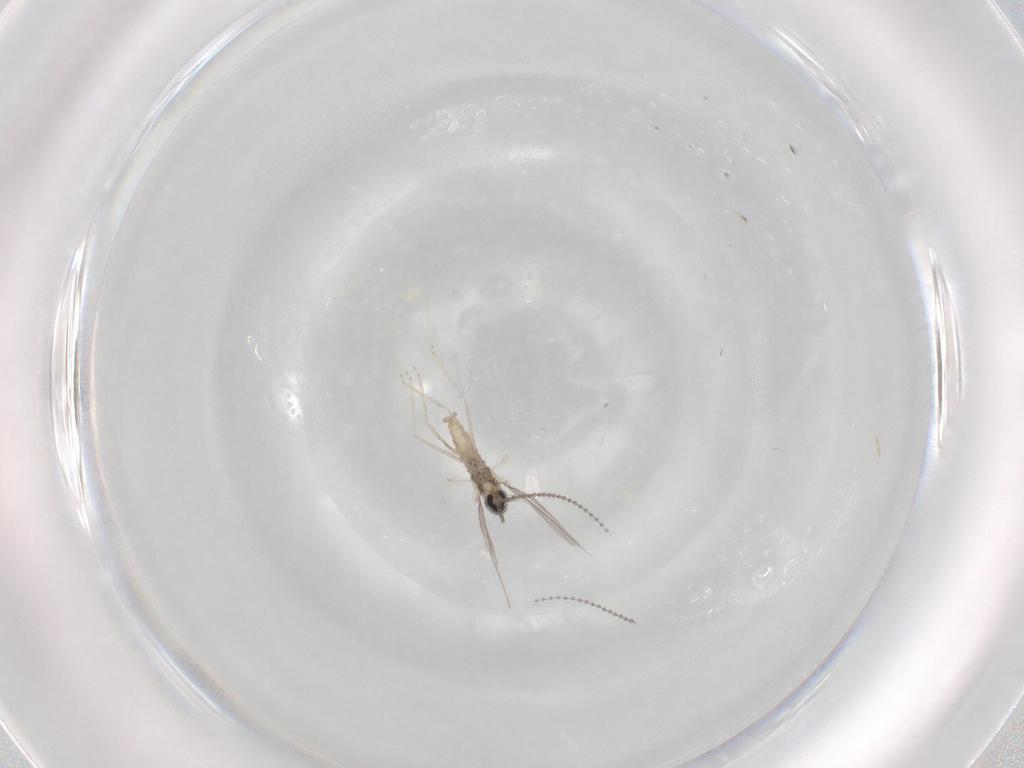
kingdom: Animalia
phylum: Arthropoda
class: Insecta
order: Diptera
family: Cecidomyiidae
